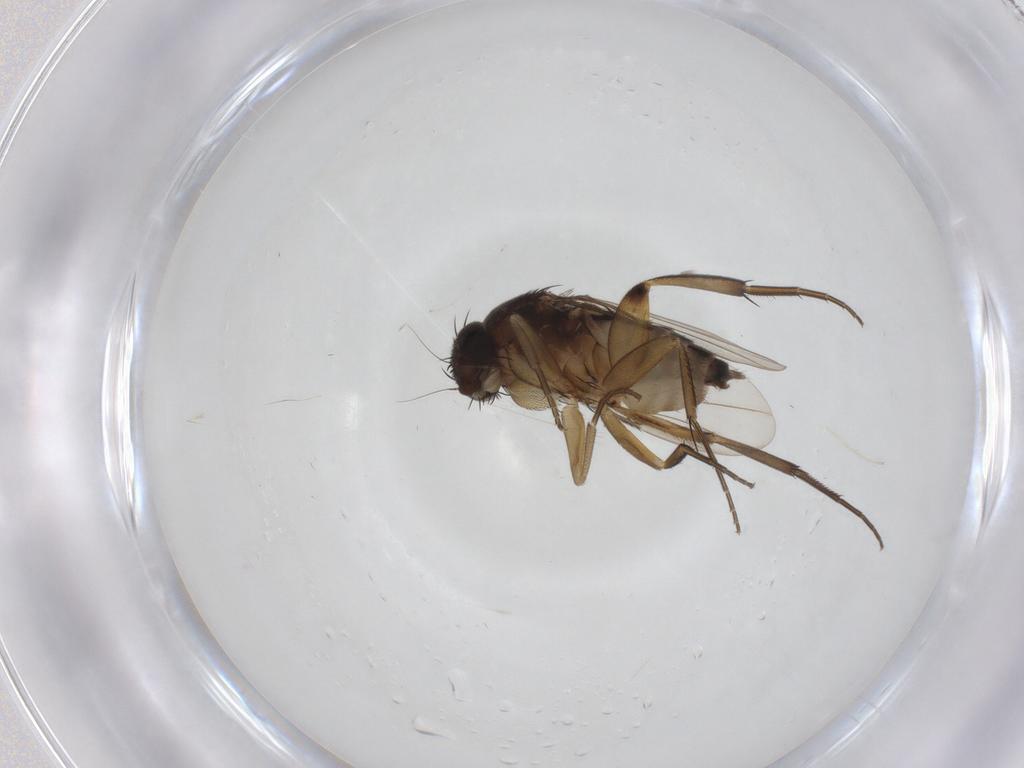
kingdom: Animalia
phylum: Arthropoda
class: Insecta
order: Diptera
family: Phoridae
